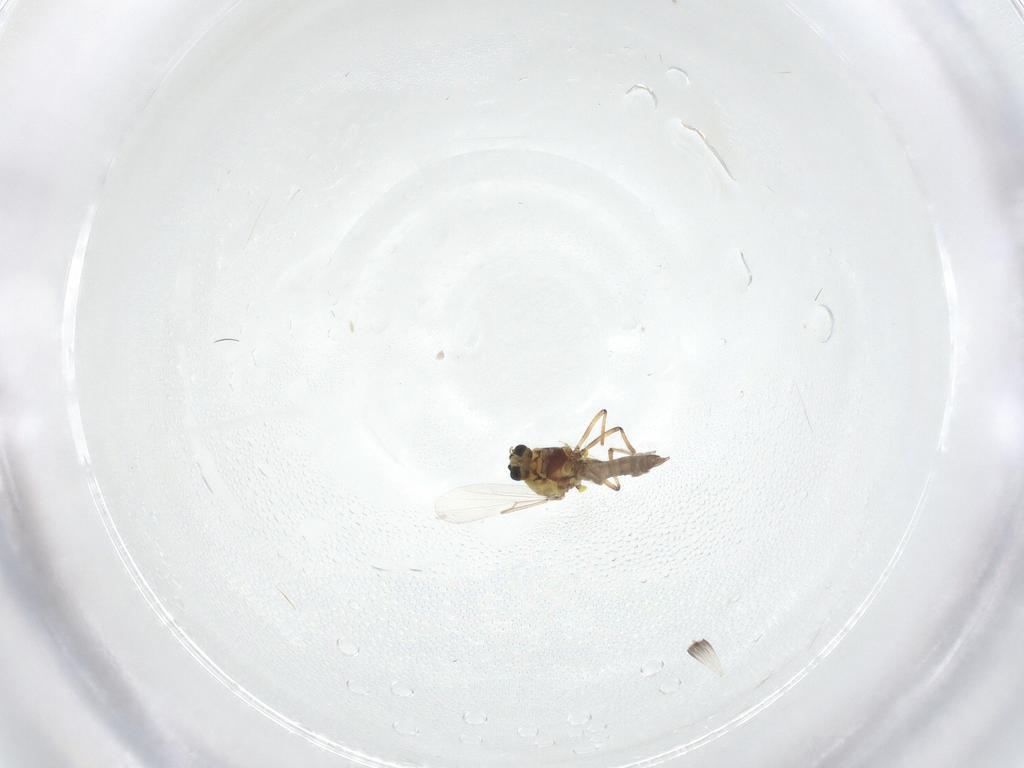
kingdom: Animalia
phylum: Arthropoda
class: Insecta
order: Diptera
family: Ceratopogonidae
